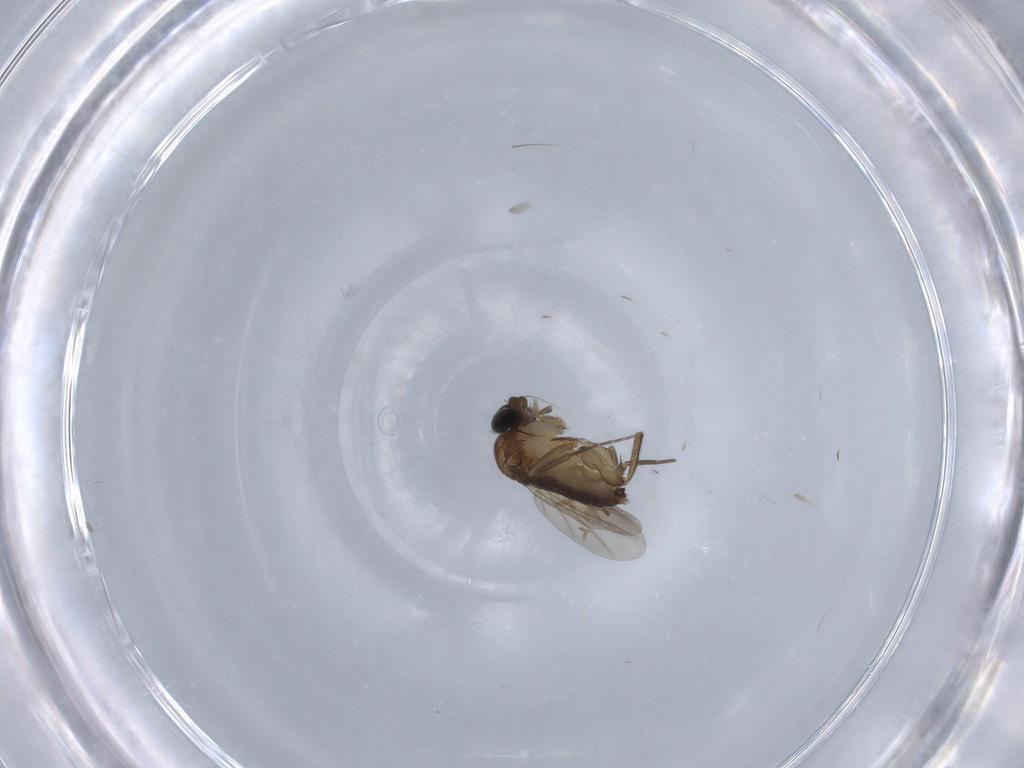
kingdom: Animalia
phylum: Arthropoda
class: Insecta
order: Diptera
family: Phoridae
